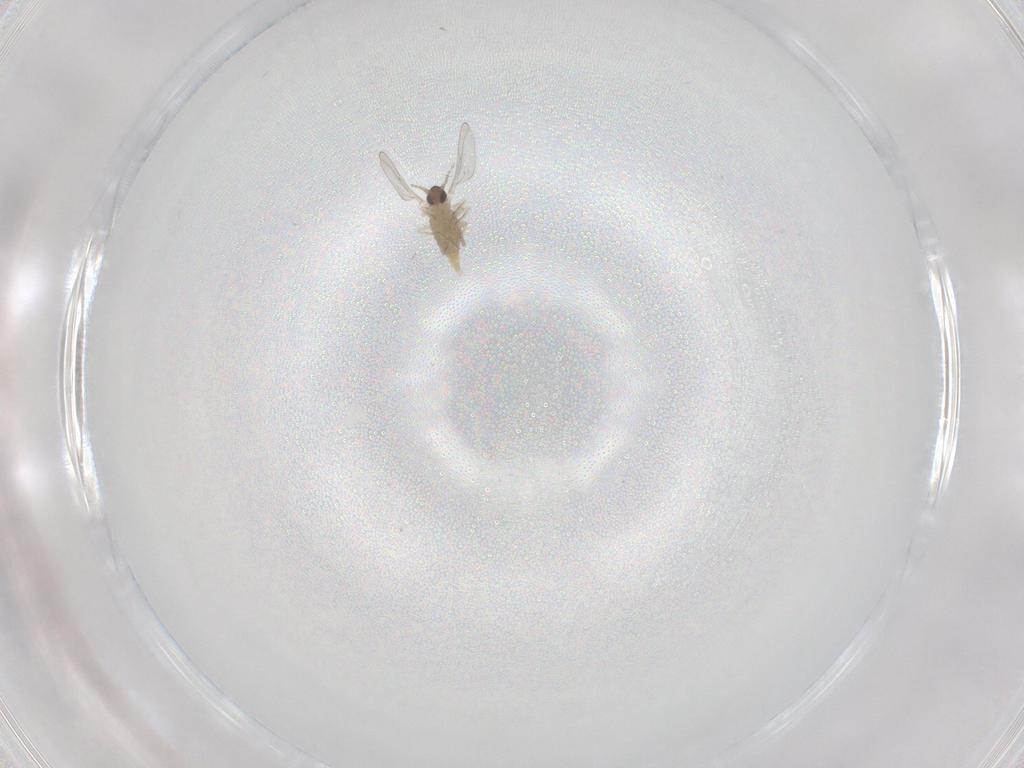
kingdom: Animalia
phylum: Arthropoda
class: Insecta
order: Diptera
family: Cecidomyiidae
